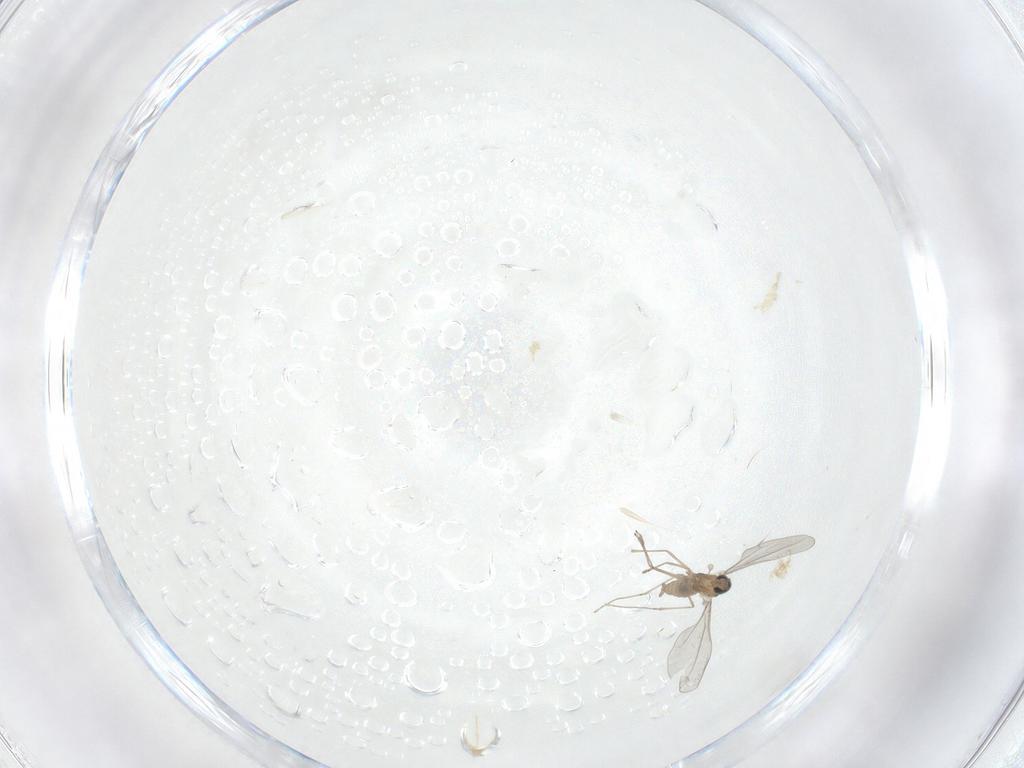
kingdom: Animalia
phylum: Arthropoda
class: Insecta
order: Diptera
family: Cecidomyiidae
